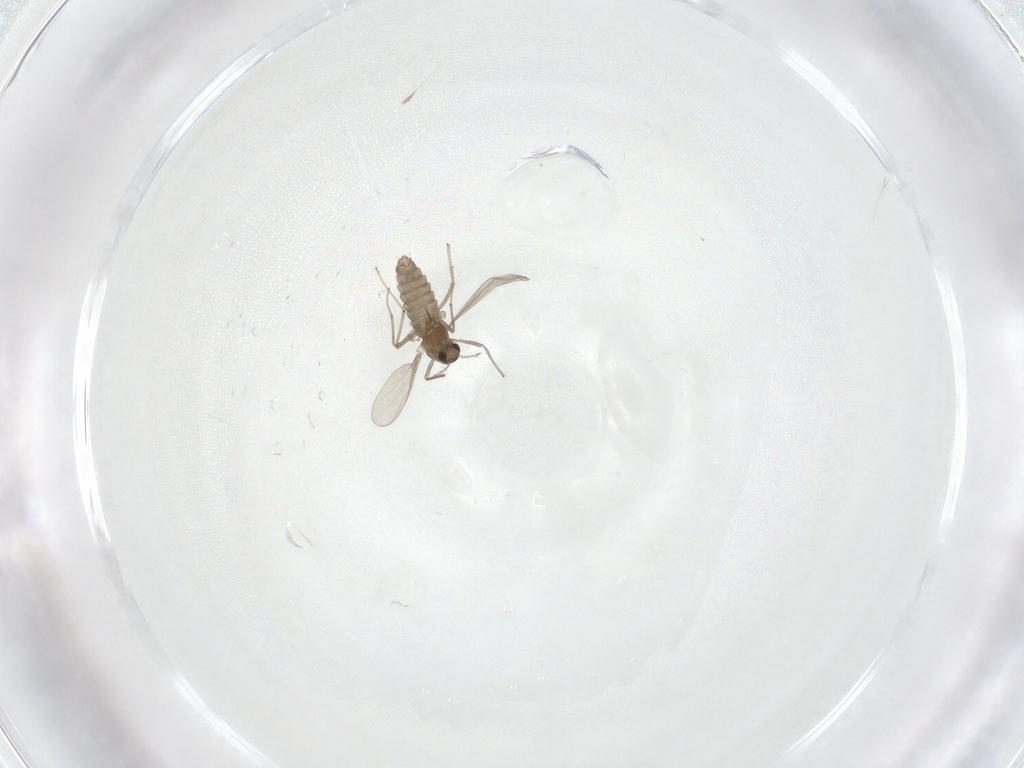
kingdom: Animalia
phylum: Arthropoda
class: Insecta
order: Diptera
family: Chironomidae
